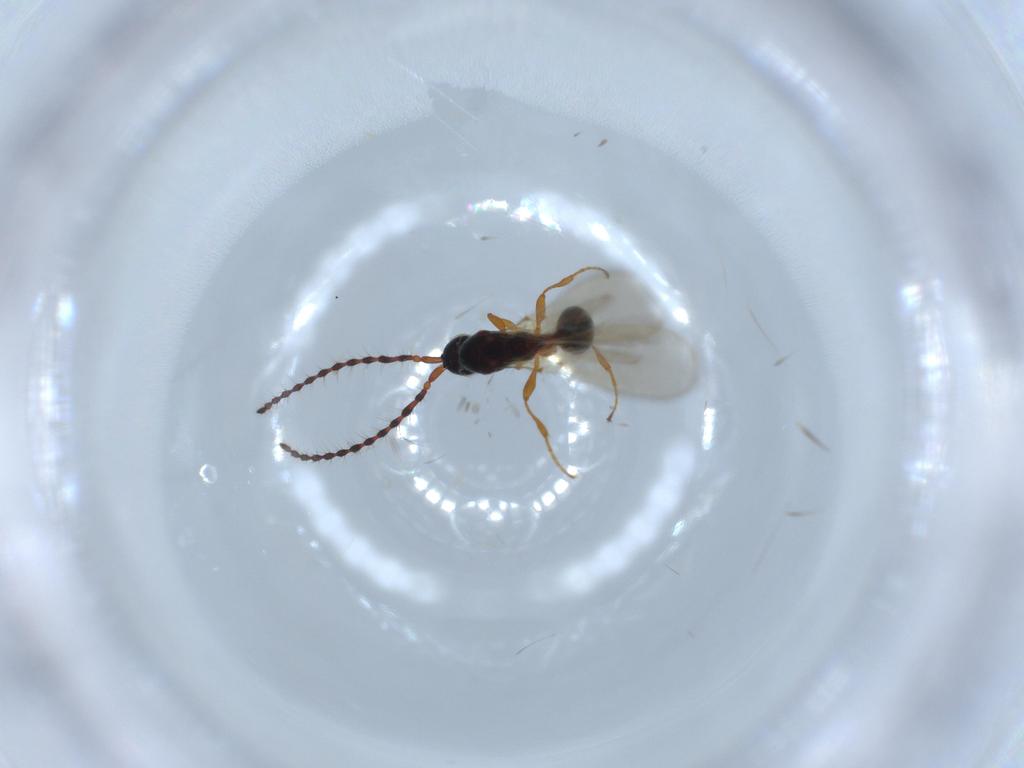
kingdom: Animalia
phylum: Arthropoda
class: Insecta
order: Hymenoptera
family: Diapriidae
